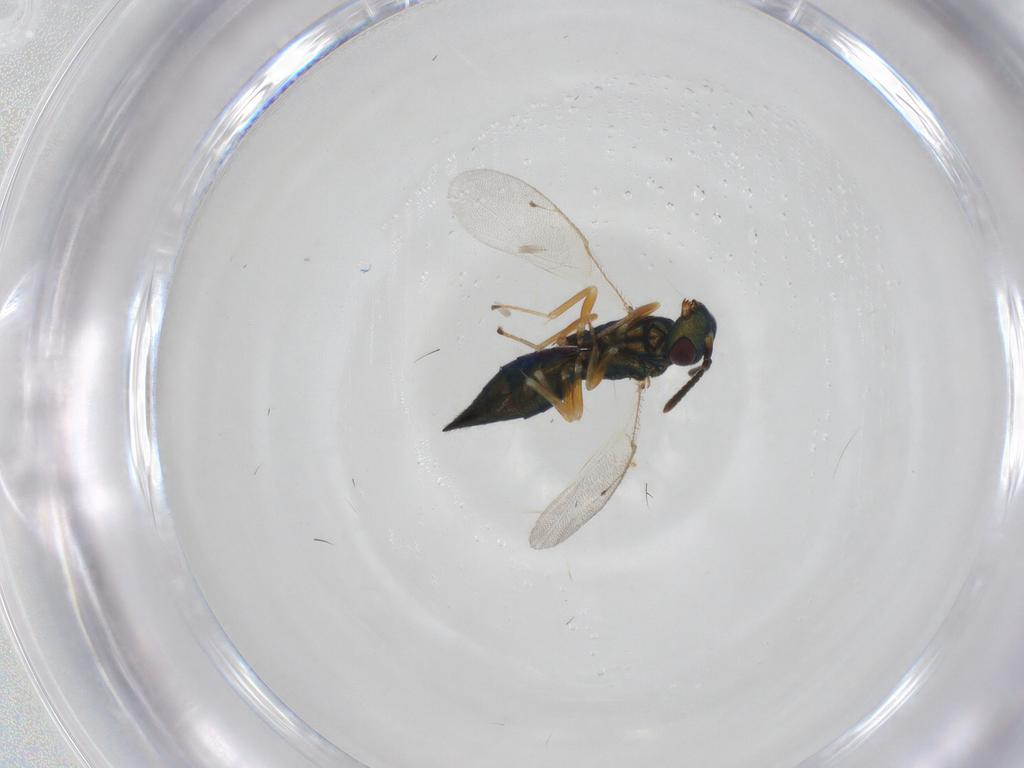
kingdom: Animalia
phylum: Arthropoda
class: Insecta
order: Hymenoptera
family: Pteromalidae
